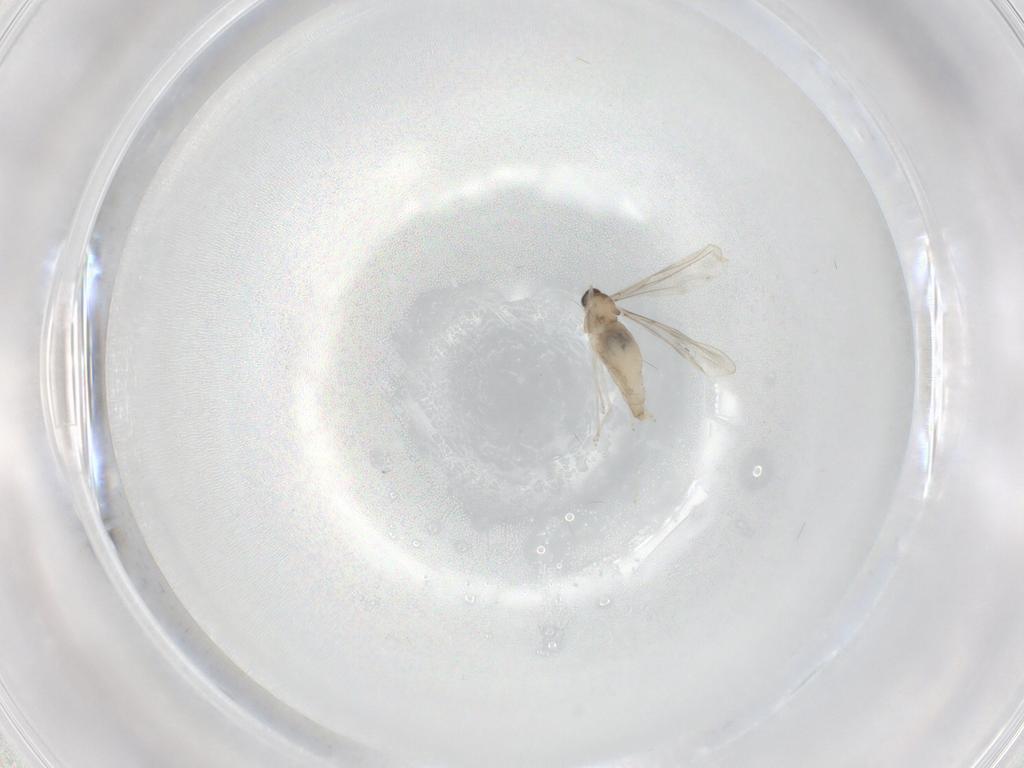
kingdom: Animalia
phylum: Arthropoda
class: Insecta
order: Diptera
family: Cecidomyiidae
